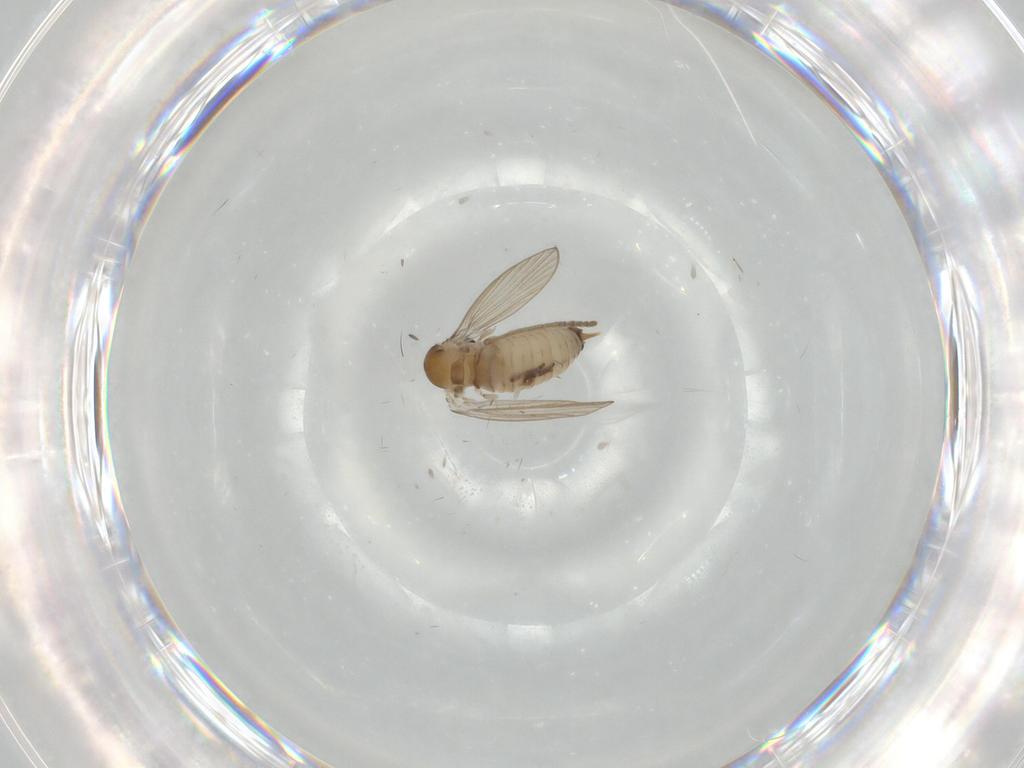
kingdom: Animalia
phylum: Arthropoda
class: Insecta
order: Diptera
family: Psychodidae
